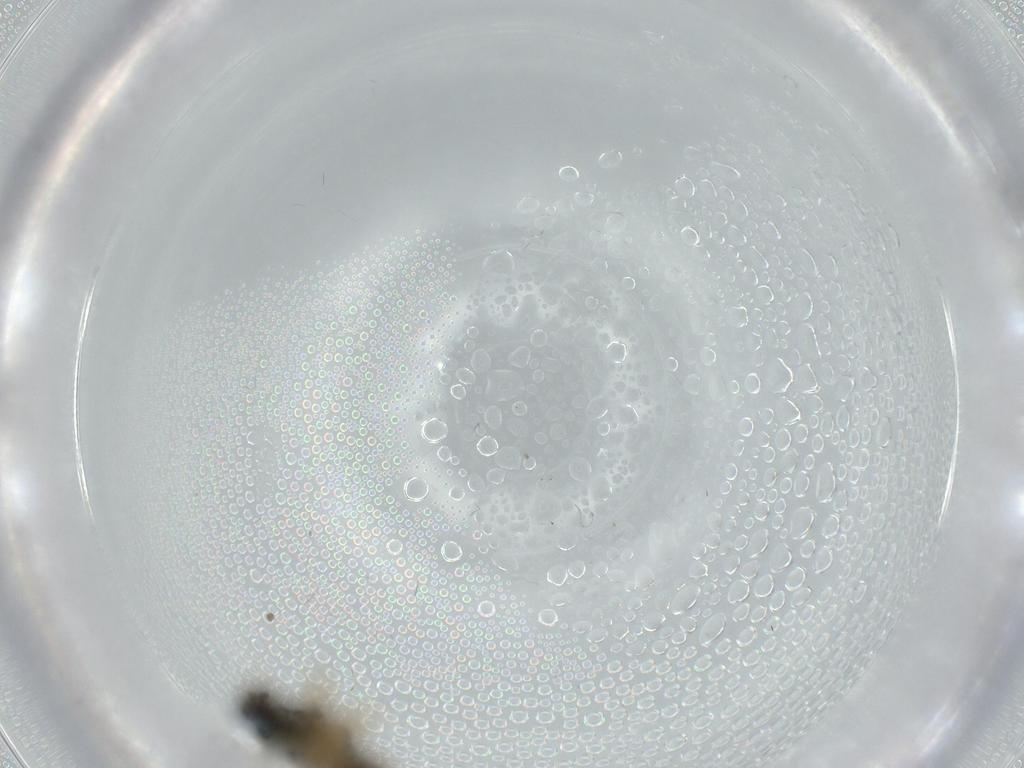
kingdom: Animalia
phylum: Arthropoda
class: Insecta
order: Diptera
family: Hybotidae
